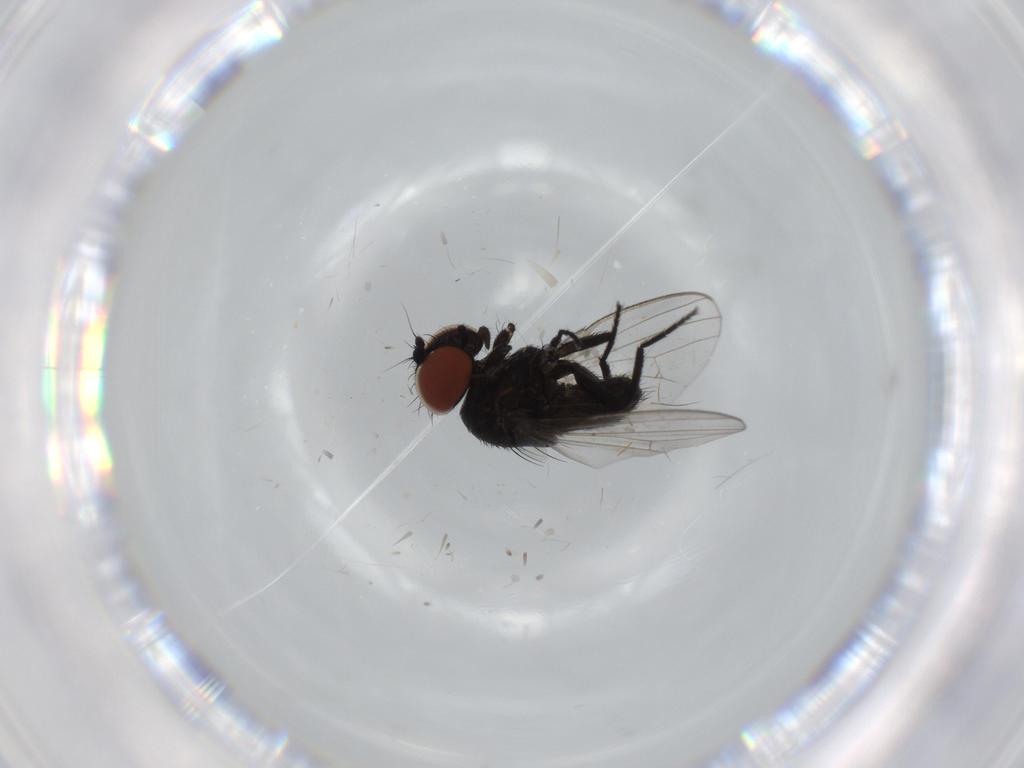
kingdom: Animalia
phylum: Arthropoda
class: Insecta
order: Diptera
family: Milichiidae
